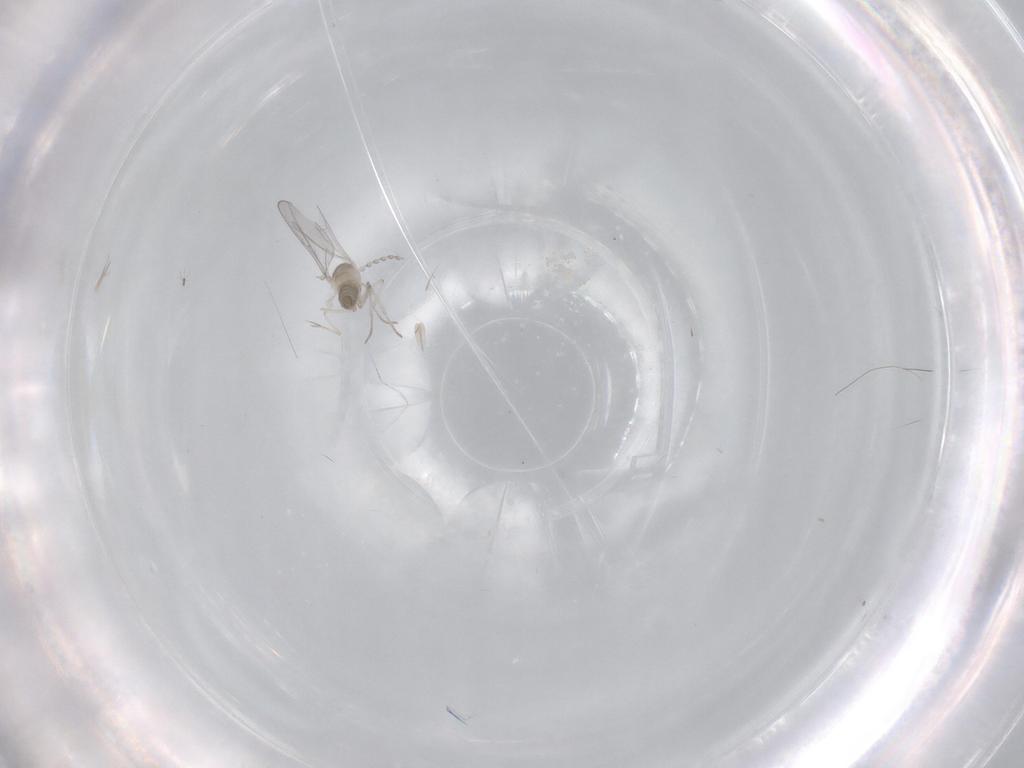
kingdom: Animalia
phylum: Arthropoda
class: Insecta
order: Diptera
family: Cecidomyiidae
